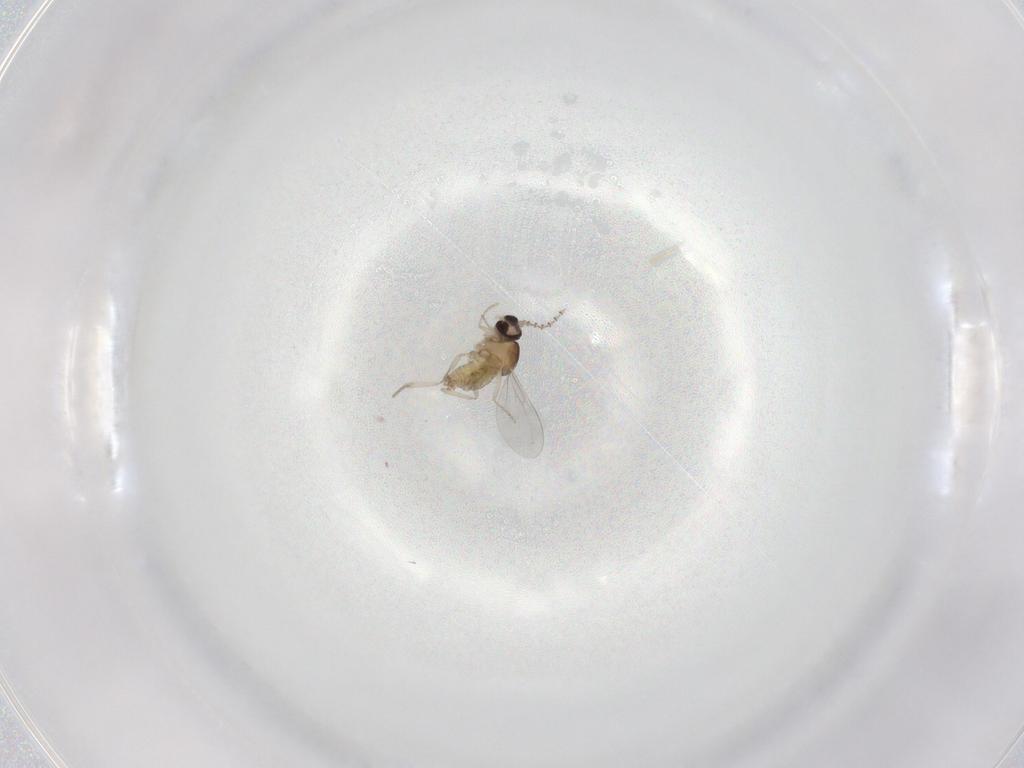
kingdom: Animalia
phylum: Arthropoda
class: Insecta
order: Diptera
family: Cecidomyiidae
